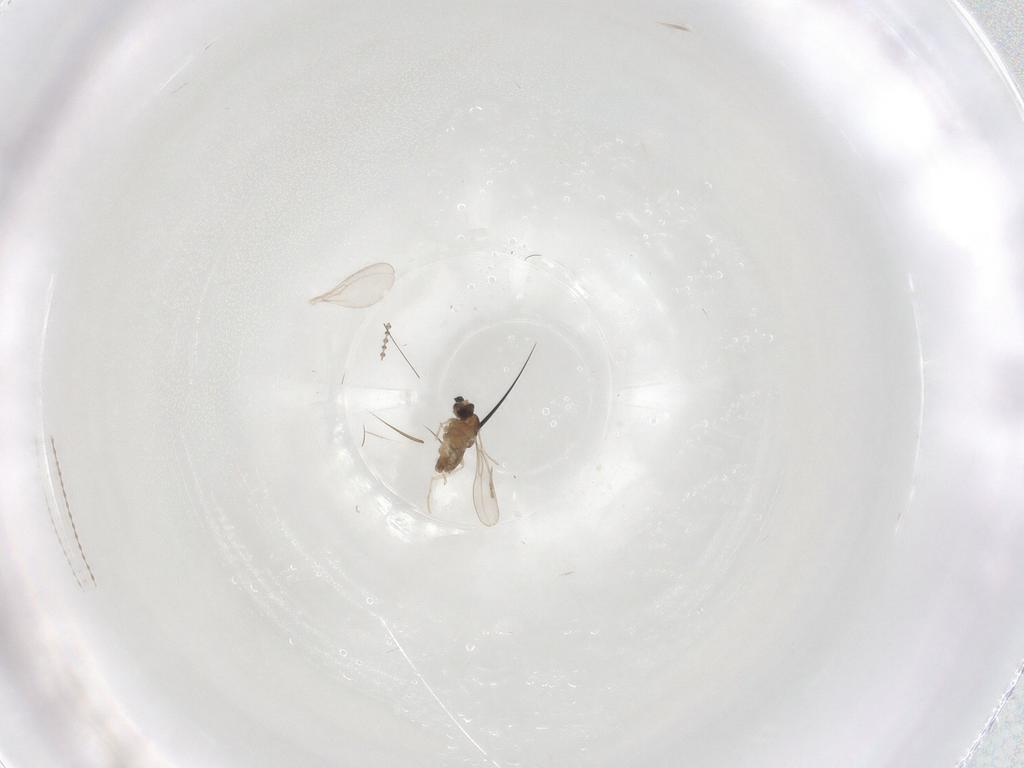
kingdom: Animalia
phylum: Arthropoda
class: Insecta
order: Diptera
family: Cecidomyiidae
